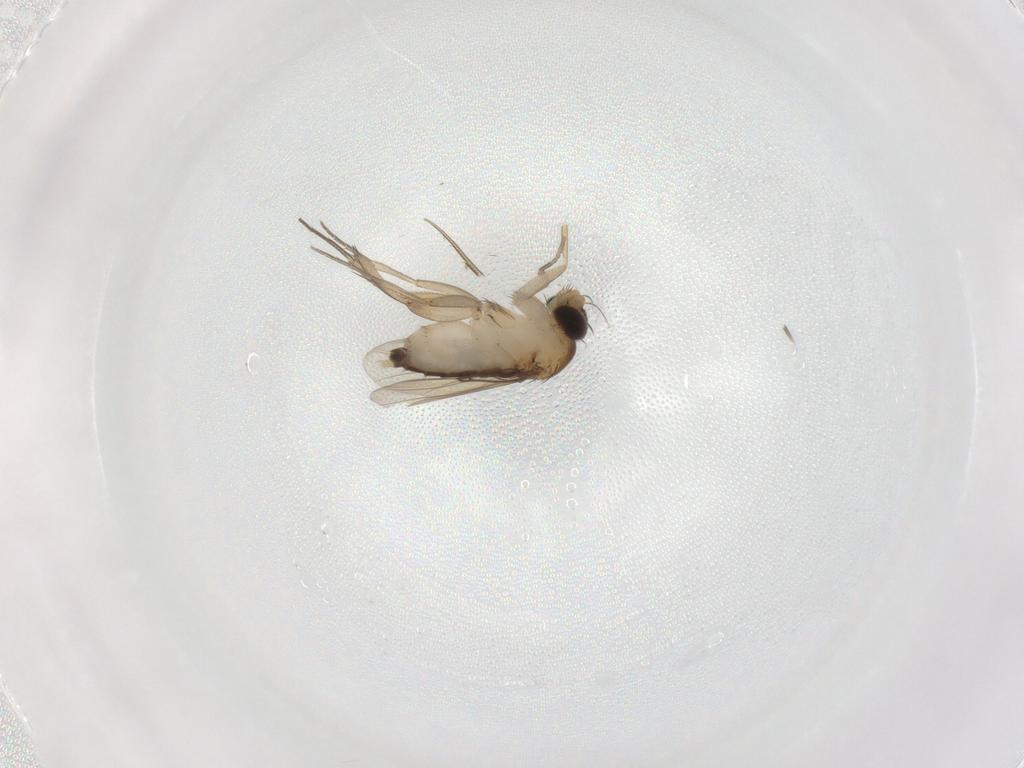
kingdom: Animalia
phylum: Arthropoda
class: Insecta
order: Diptera
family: Phoridae
